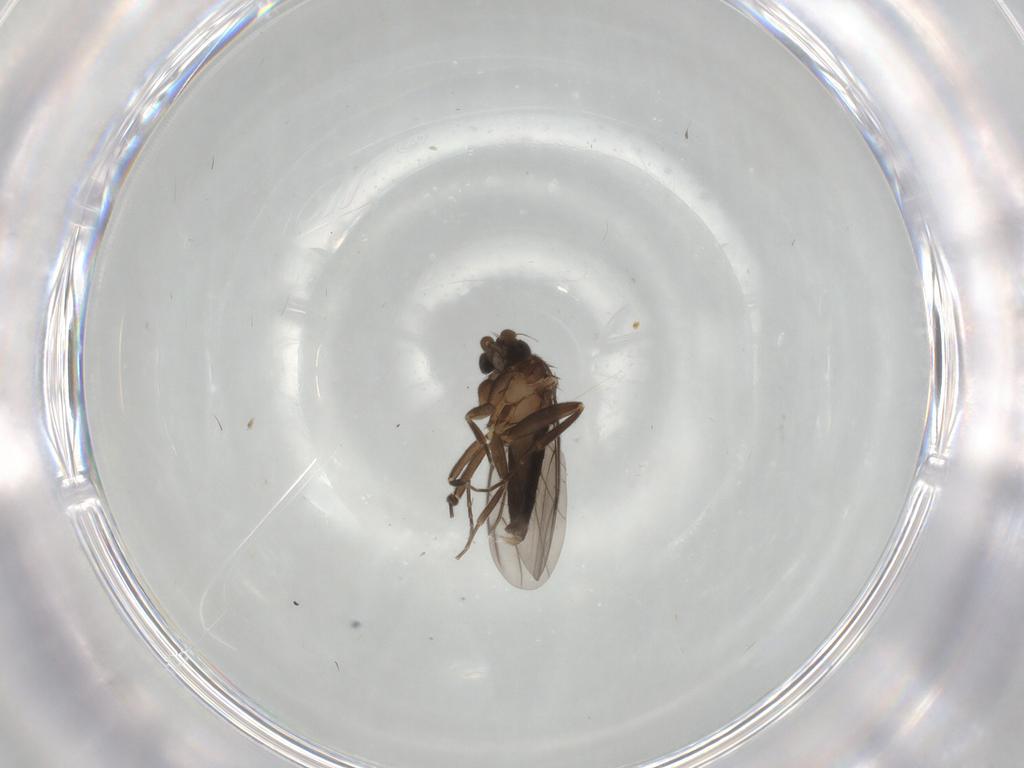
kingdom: Animalia
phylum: Arthropoda
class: Insecta
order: Diptera
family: Phoridae
